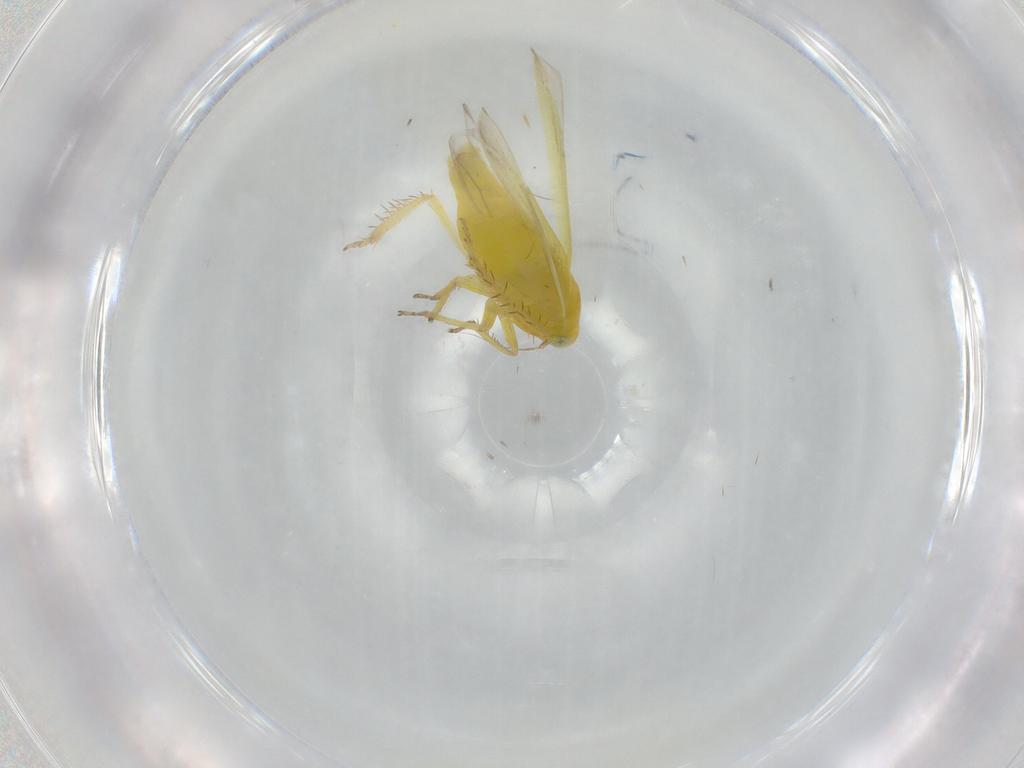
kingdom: Animalia
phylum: Arthropoda
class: Insecta
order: Hemiptera
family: Cicadellidae
